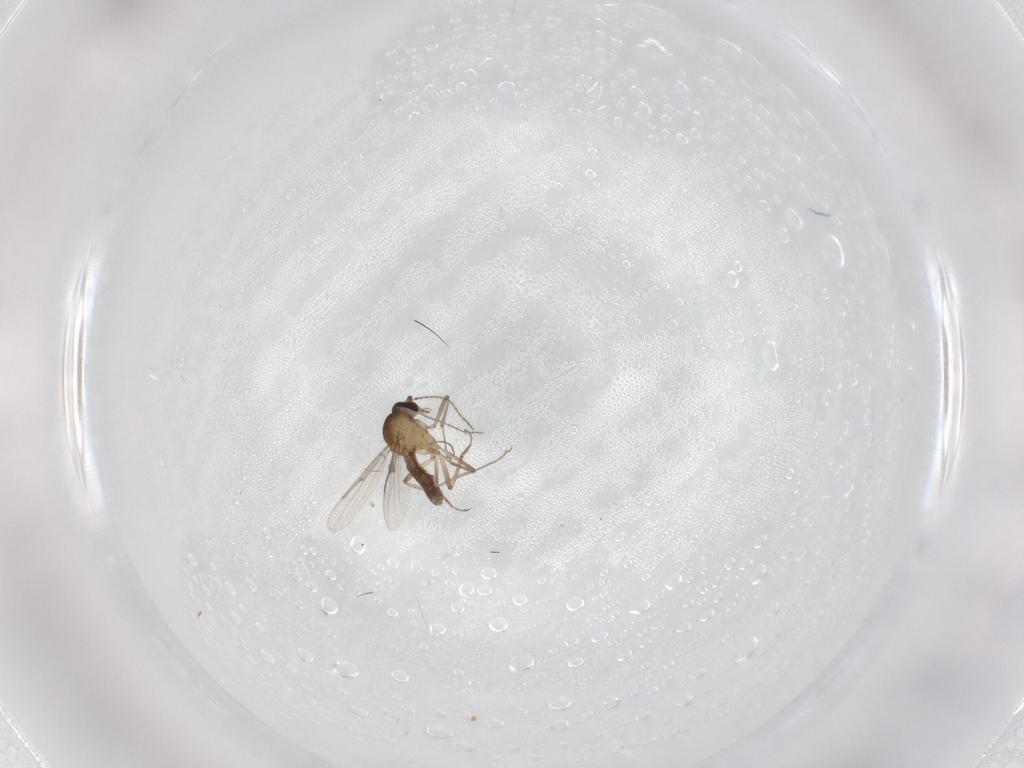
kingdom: Animalia
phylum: Arthropoda
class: Insecta
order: Diptera
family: Ceratopogonidae
